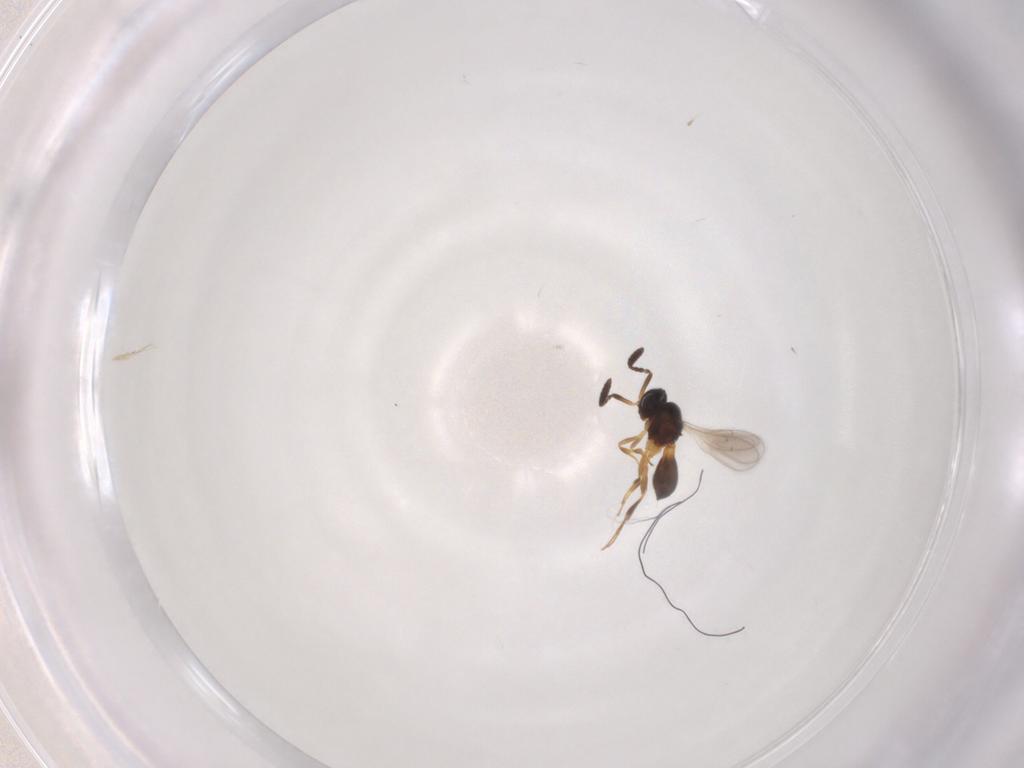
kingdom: Animalia
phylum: Arthropoda
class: Insecta
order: Hymenoptera
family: Scelionidae
